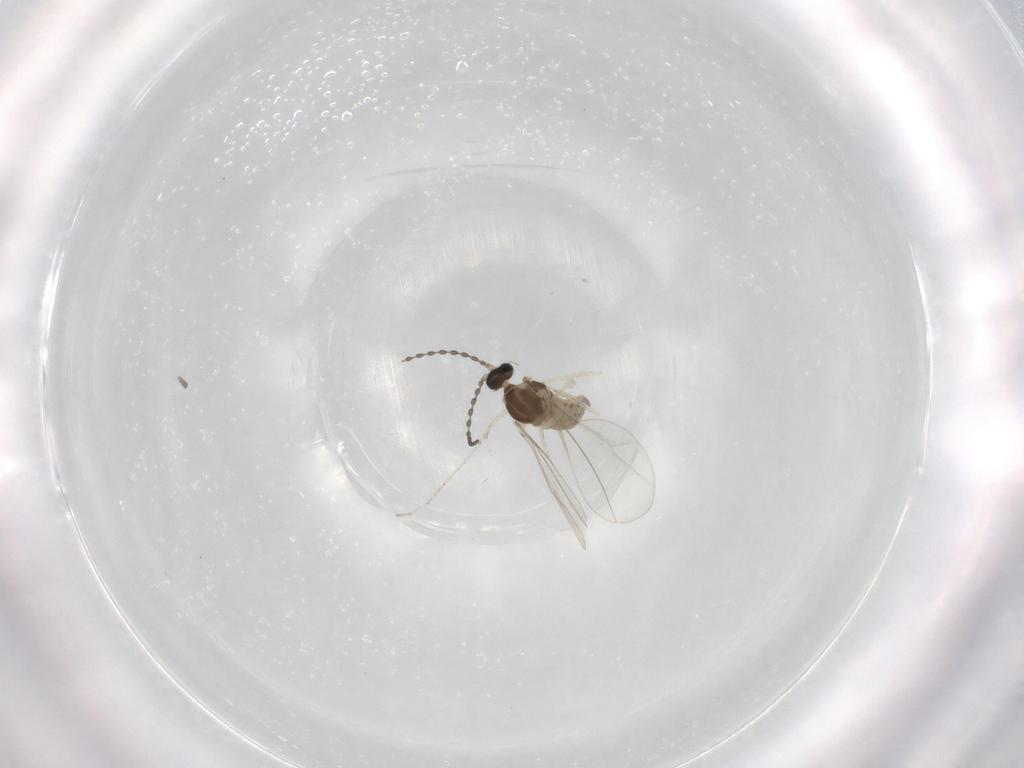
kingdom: Animalia
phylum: Arthropoda
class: Insecta
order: Diptera
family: Cecidomyiidae
